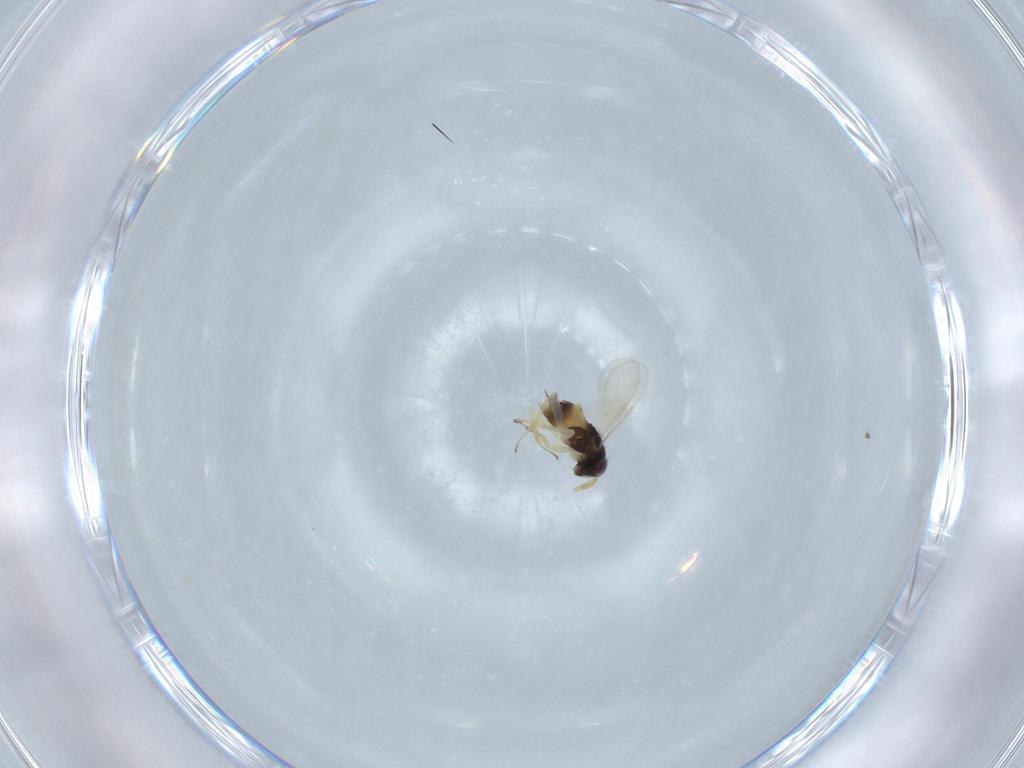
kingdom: Animalia
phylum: Arthropoda
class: Insecta
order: Hymenoptera
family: Aphelinidae
